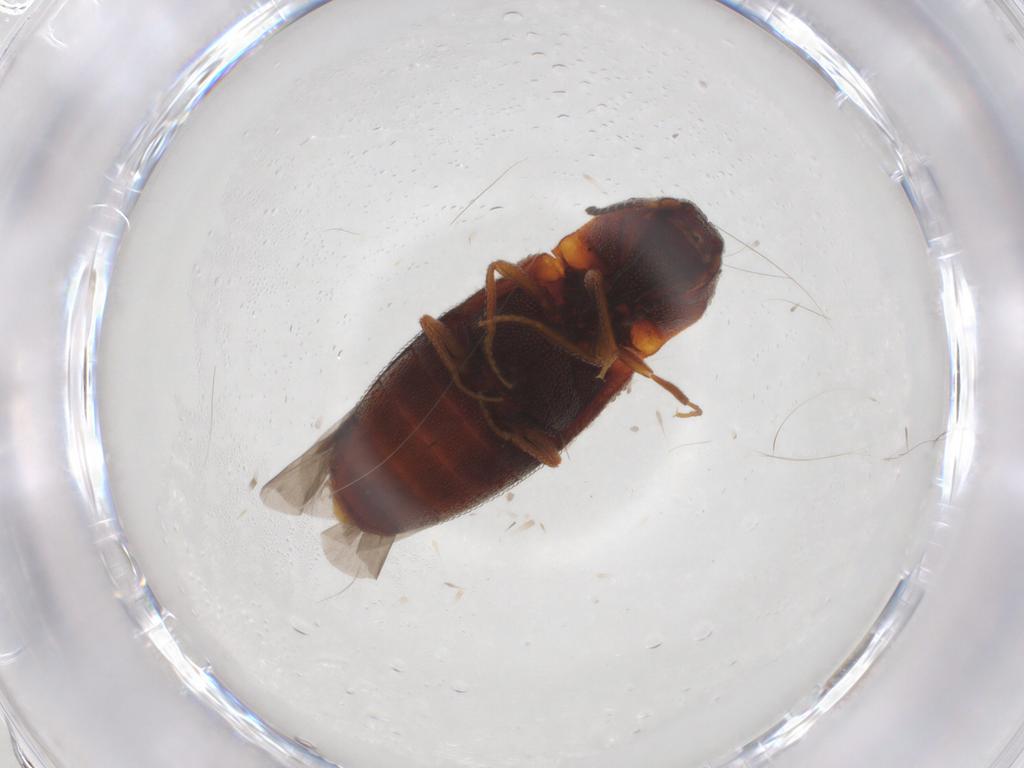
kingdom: Animalia
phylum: Arthropoda
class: Insecta
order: Coleoptera
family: Elateridae
